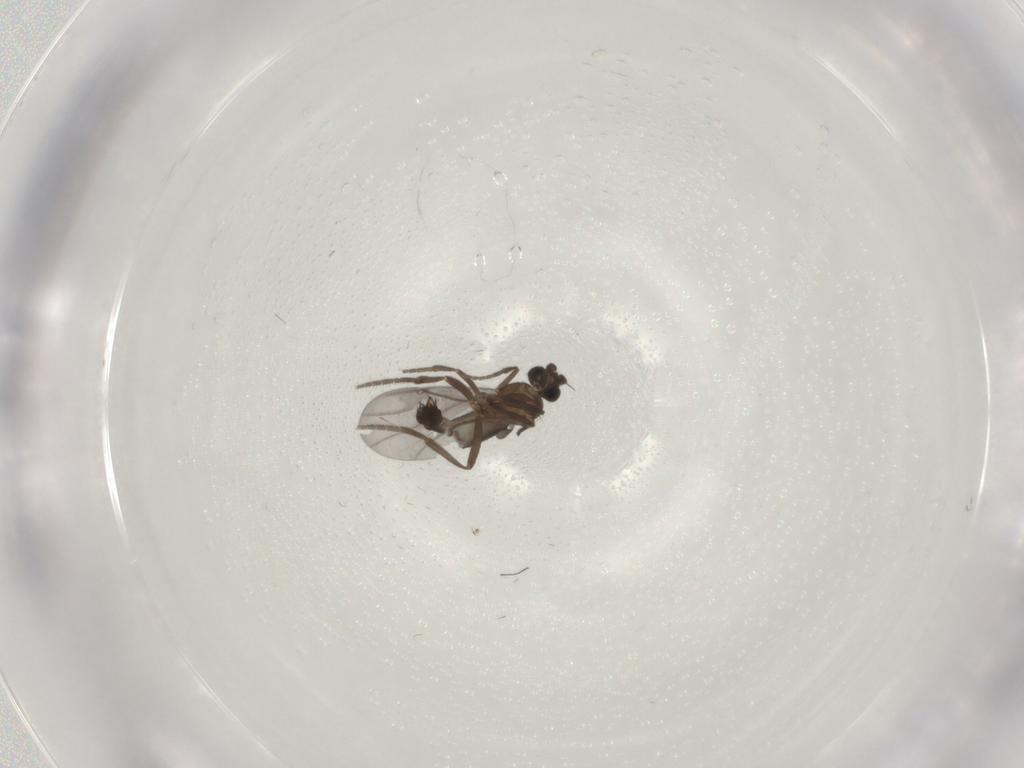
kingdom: Animalia
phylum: Arthropoda
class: Insecta
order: Diptera
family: Phoridae
